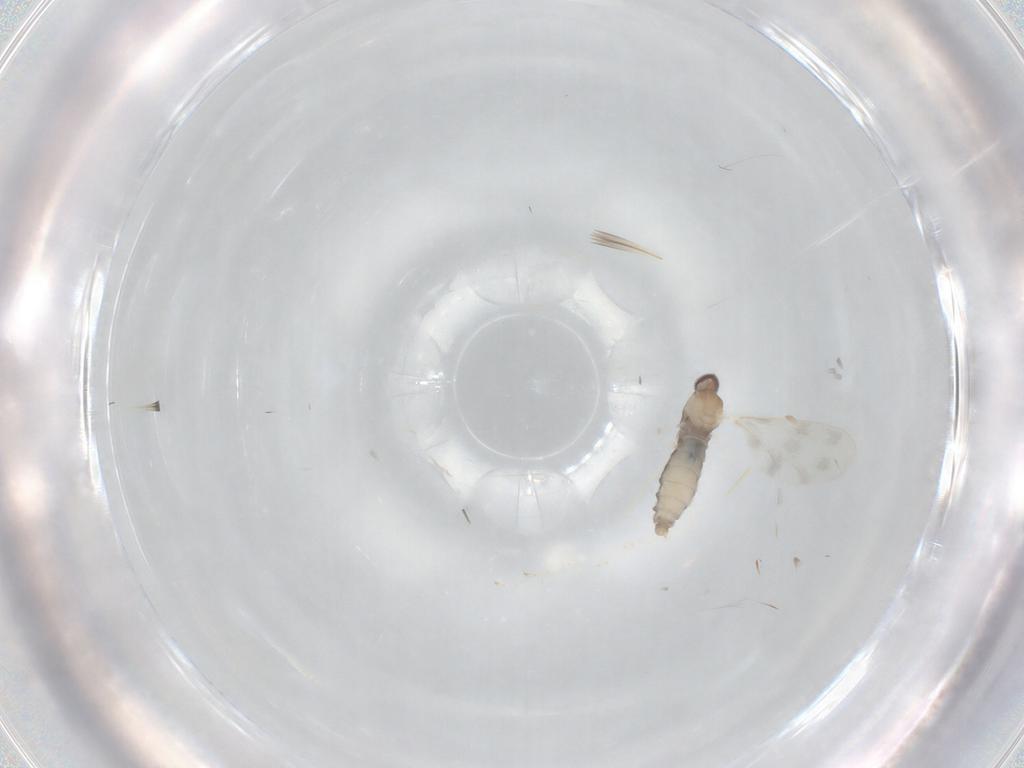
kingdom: Animalia
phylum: Arthropoda
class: Insecta
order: Diptera
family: Cecidomyiidae
